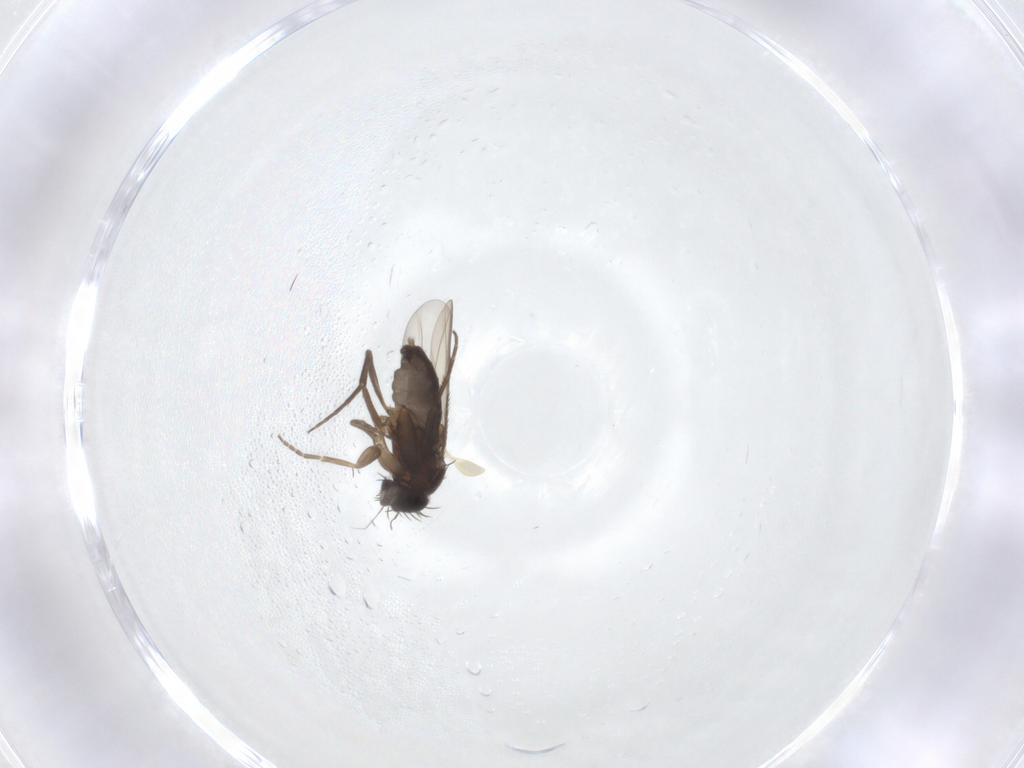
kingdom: Animalia
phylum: Arthropoda
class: Insecta
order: Diptera
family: Phoridae
